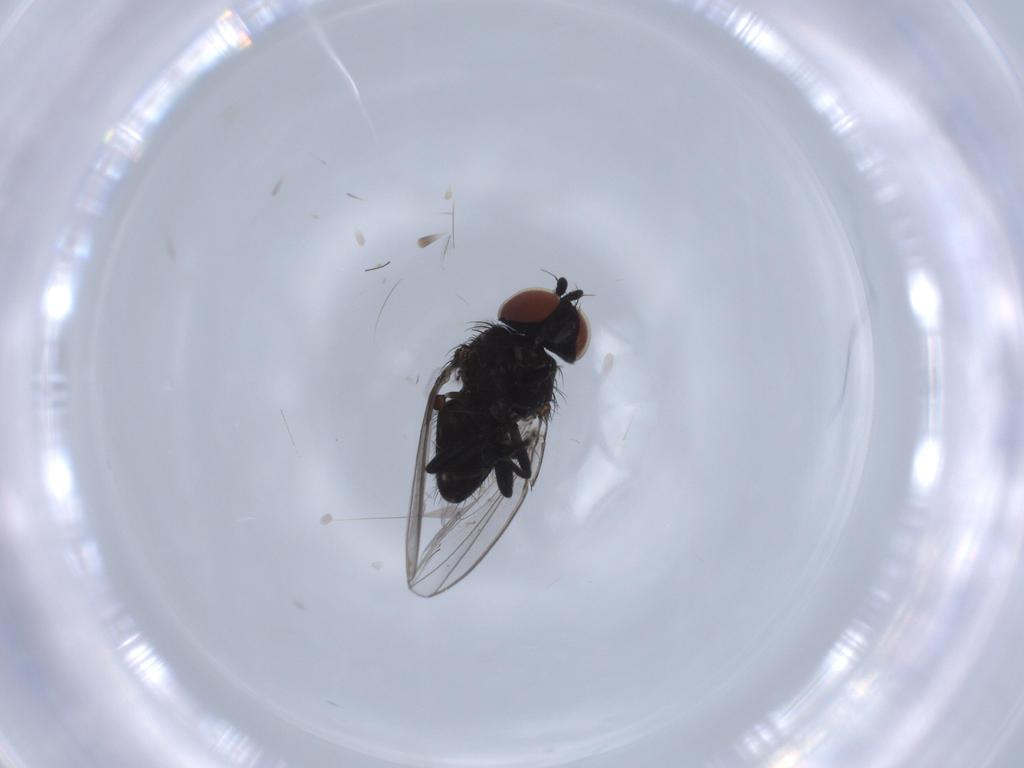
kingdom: Animalia
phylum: Arthropoda
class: Insecta
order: Diptera
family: Milichiidae
